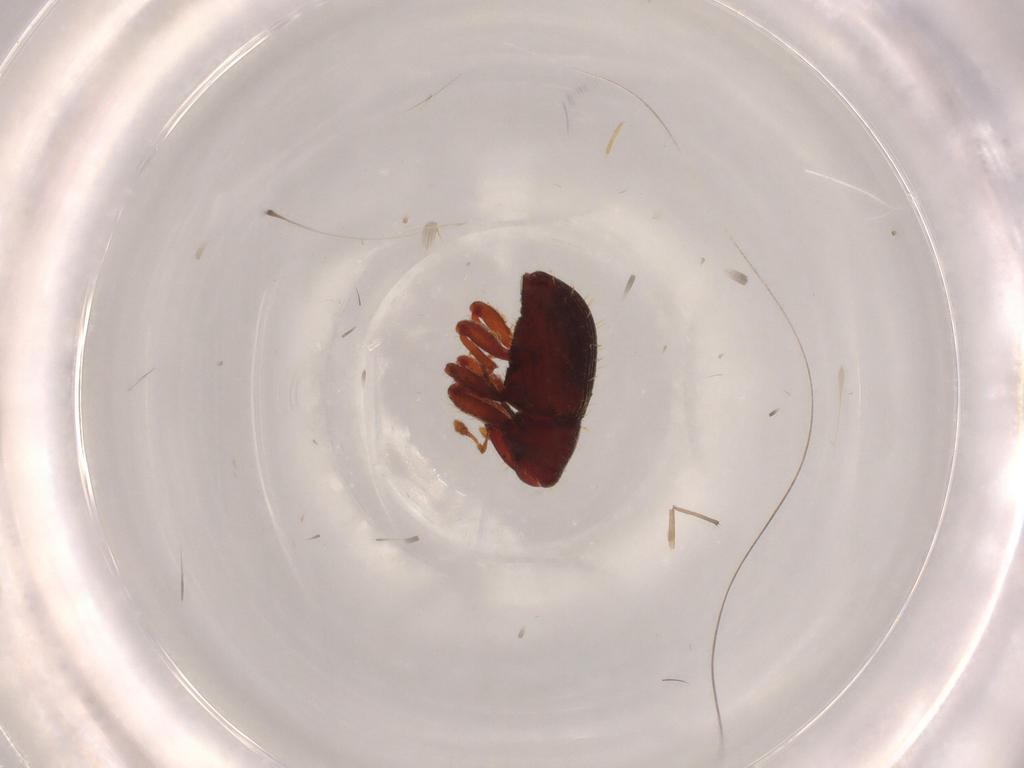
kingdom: Animalia
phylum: Arthropoda
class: Insecta
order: Coleoptera
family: Curculionidae
